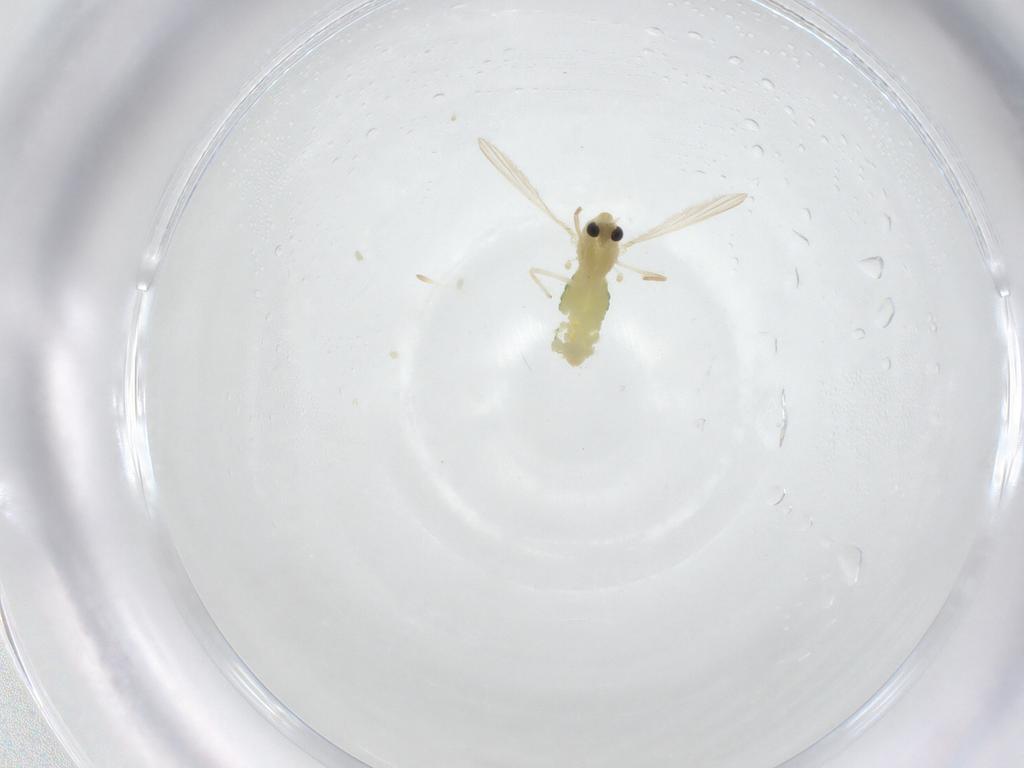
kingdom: Animalia
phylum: Arthropoda
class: Insecta
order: Diptera
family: Chironomidae
